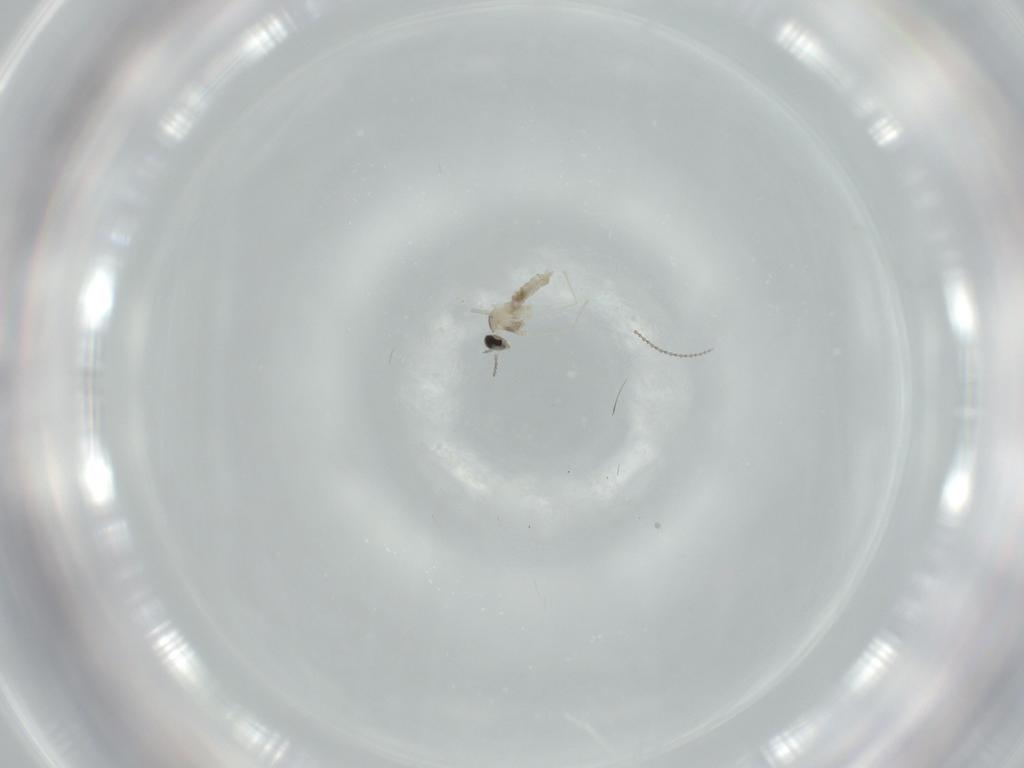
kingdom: Animalia
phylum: Arthropoda
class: Insecta
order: Diptera
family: Cecidomyiidae
